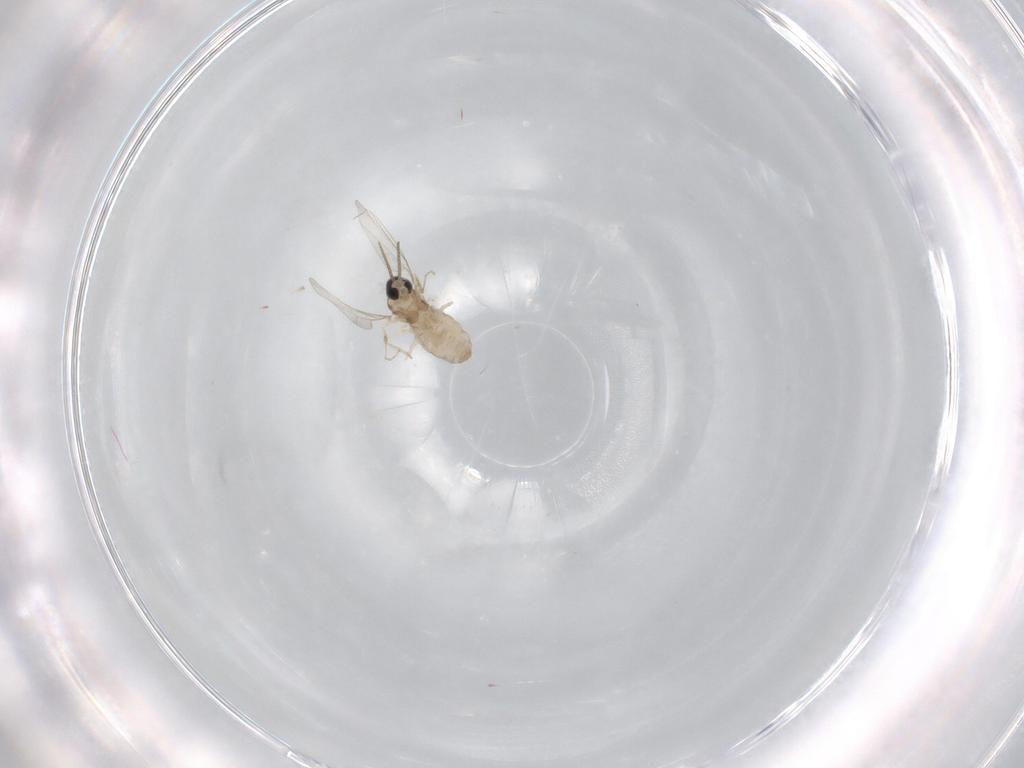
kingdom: Animalia
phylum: Arthropoda
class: Insecta
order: Diptera
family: Cecidomyiidae
